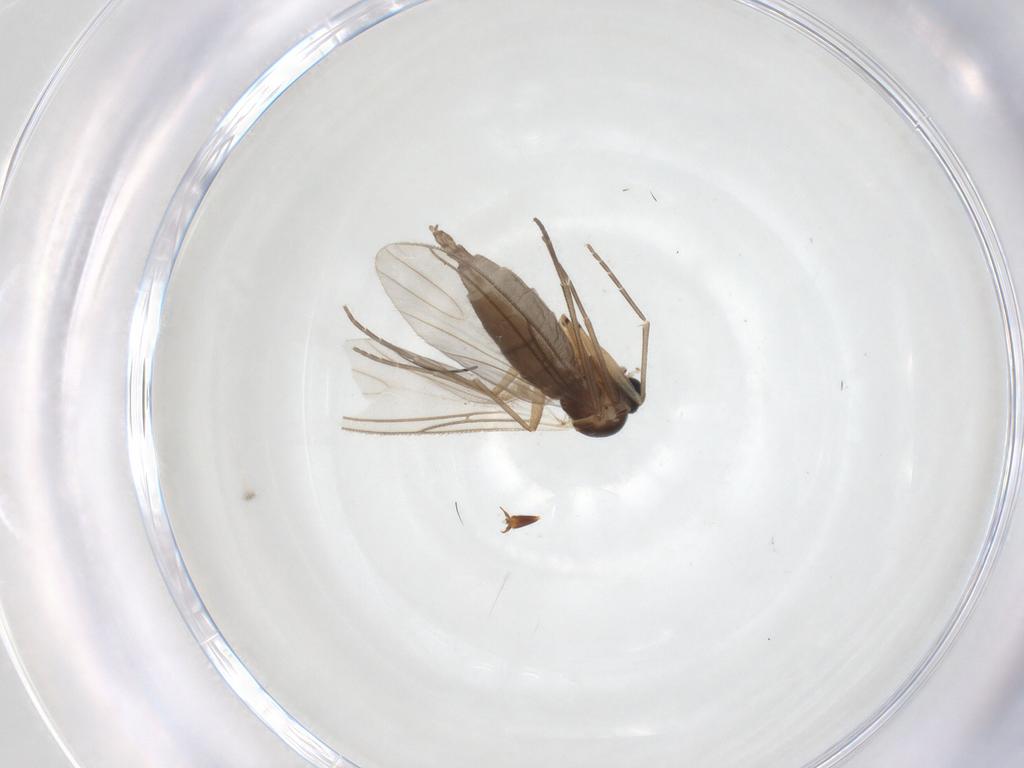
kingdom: Animalia
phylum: Arthropoda
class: Insecta
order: Diptera
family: Sciaridae
